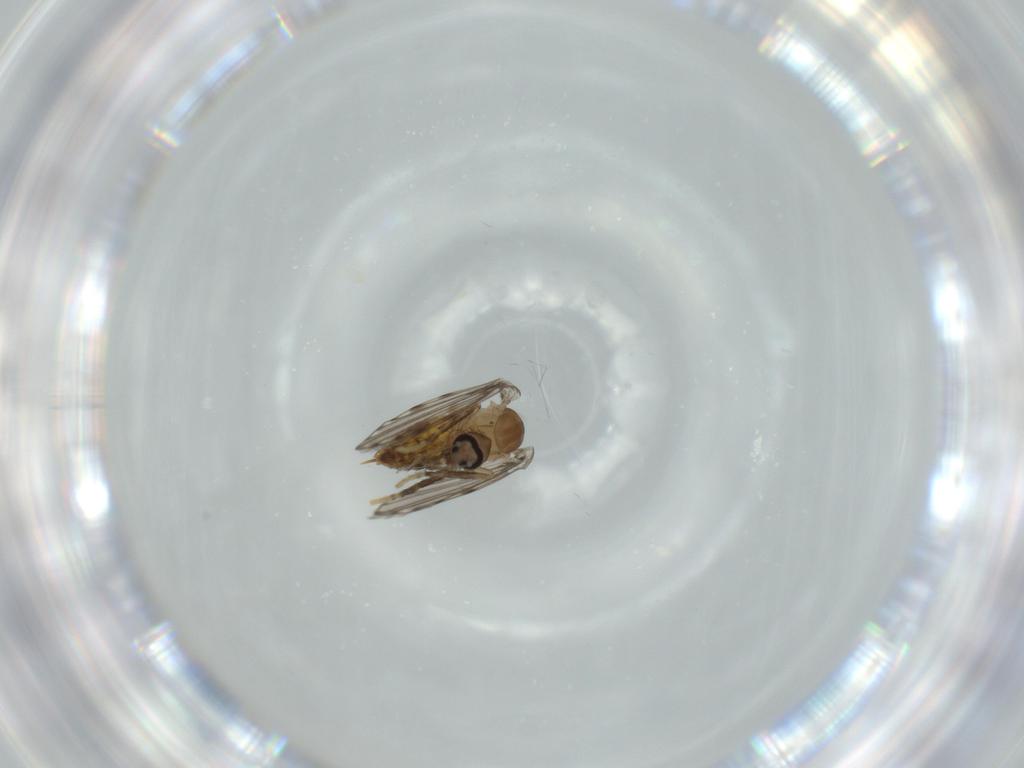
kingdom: Animalia
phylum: Arthropoda
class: Insecta
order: Diptera
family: Psychodidae
